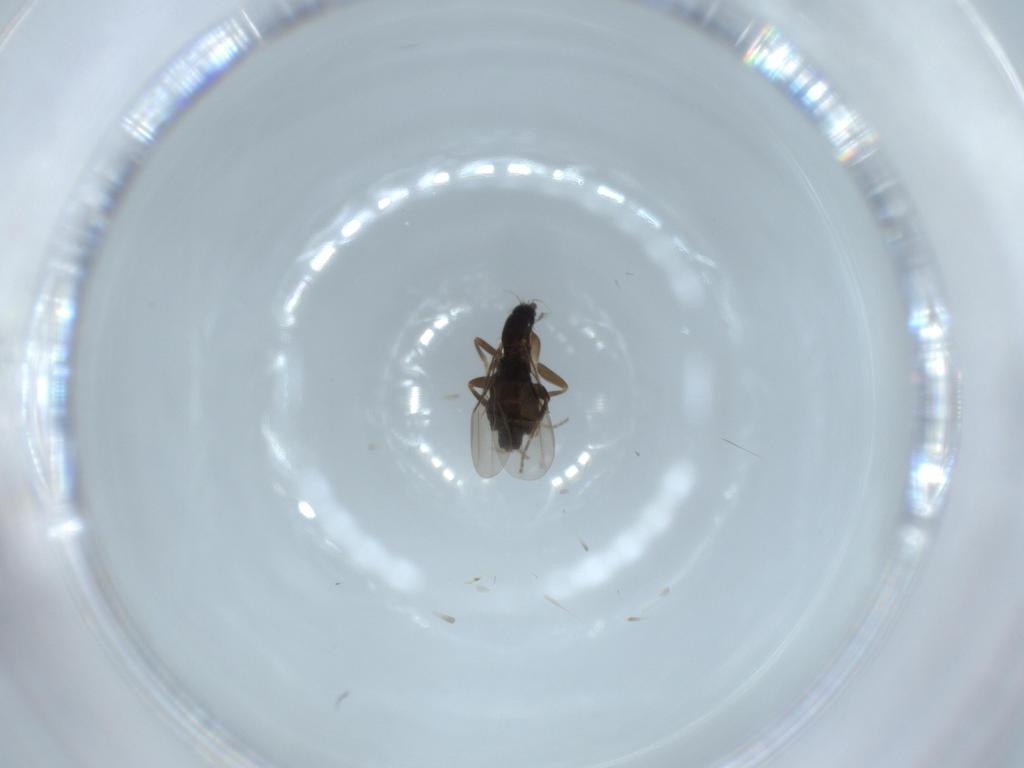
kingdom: Animalia
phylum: Arthropoda
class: Insecta
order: Diptera
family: Phoridae
